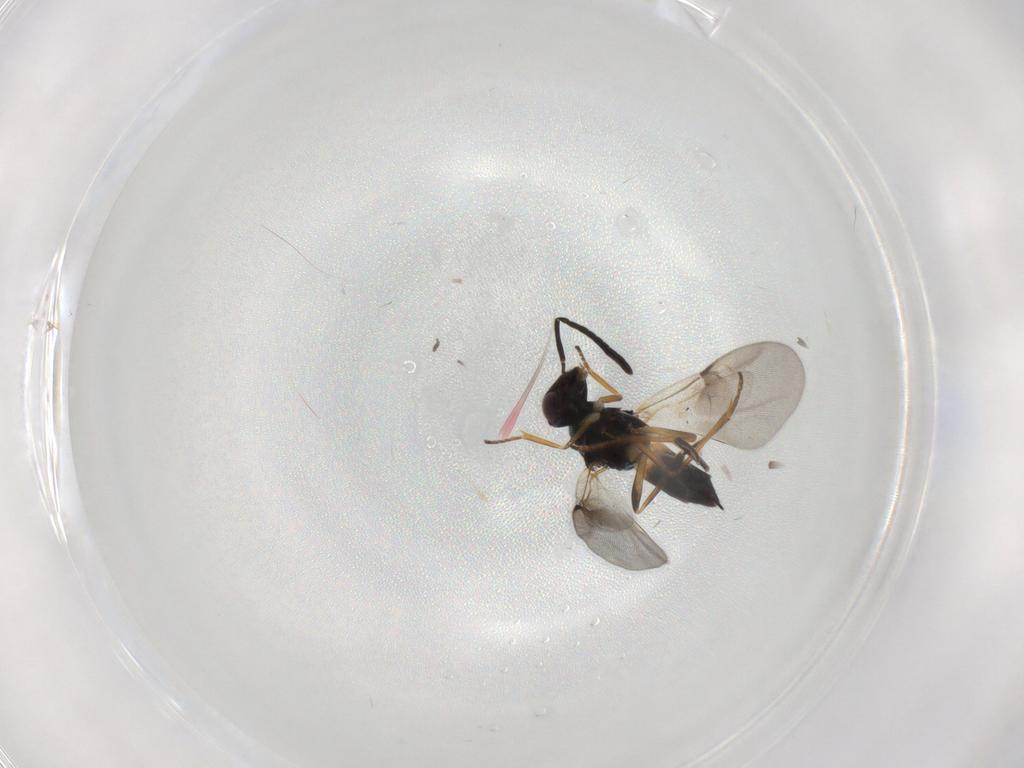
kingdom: Animalia
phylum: Arthropoda
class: Insecta
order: Hymenoptera
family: Encyrtidae
